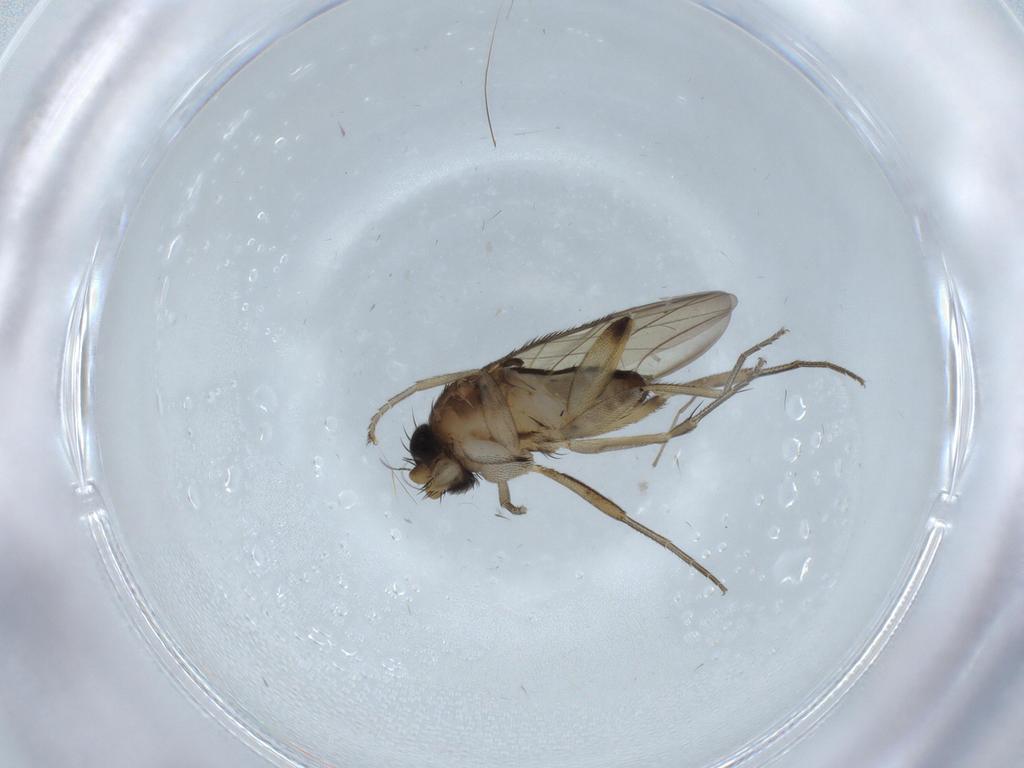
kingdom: Animalia
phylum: Arthropoda
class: Insecta
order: Diptera
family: Phoridae
